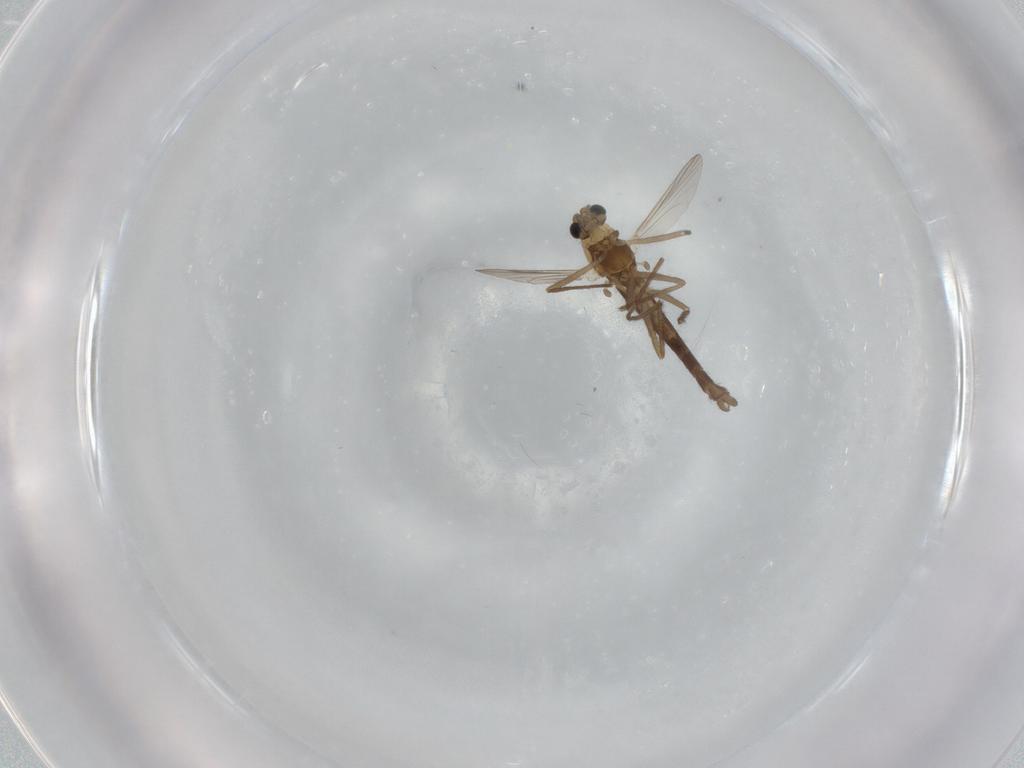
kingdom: Animalia
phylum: Arthropoda
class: Insecta
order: Diptera
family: Chironomidae
